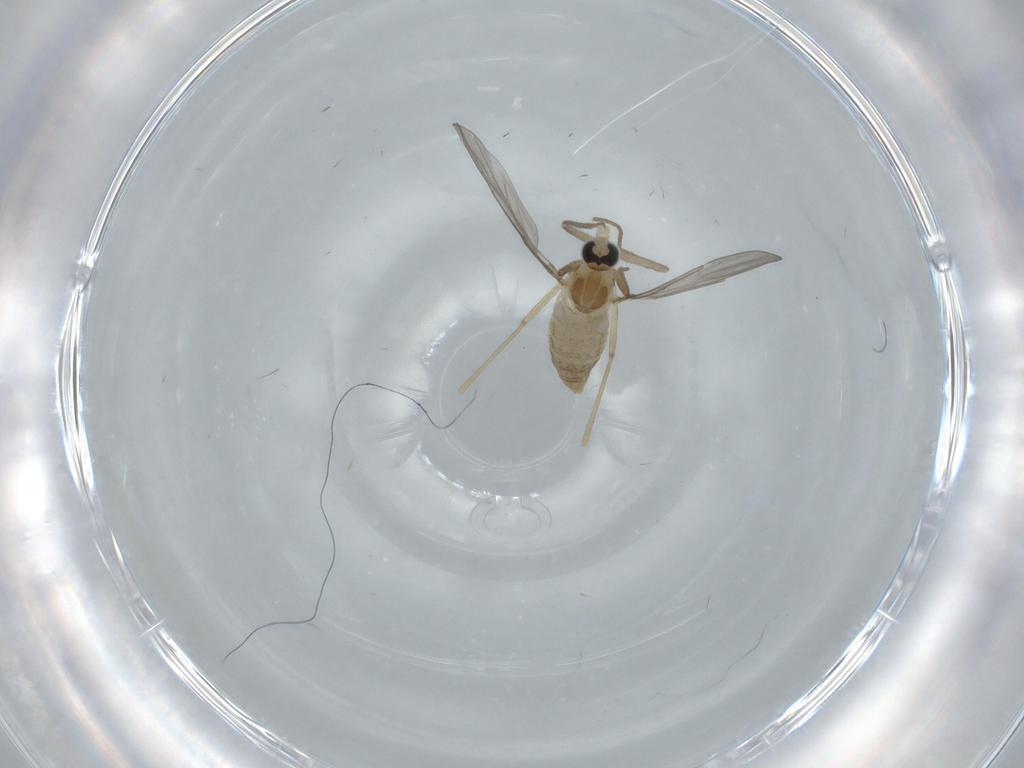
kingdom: Animalia
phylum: Arthropoda
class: Insecta
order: Diptera
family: Cecidomyiidae
